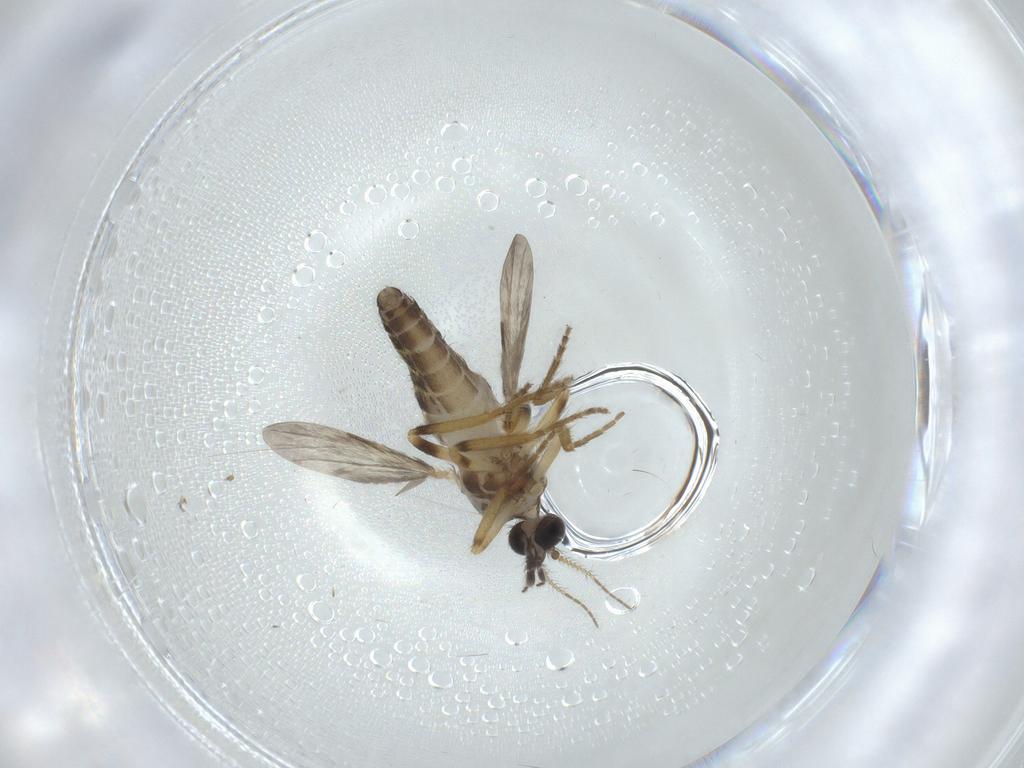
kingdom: Animalia
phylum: Arthropoda
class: Insecta
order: Diptera
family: Ceratopogonidae
